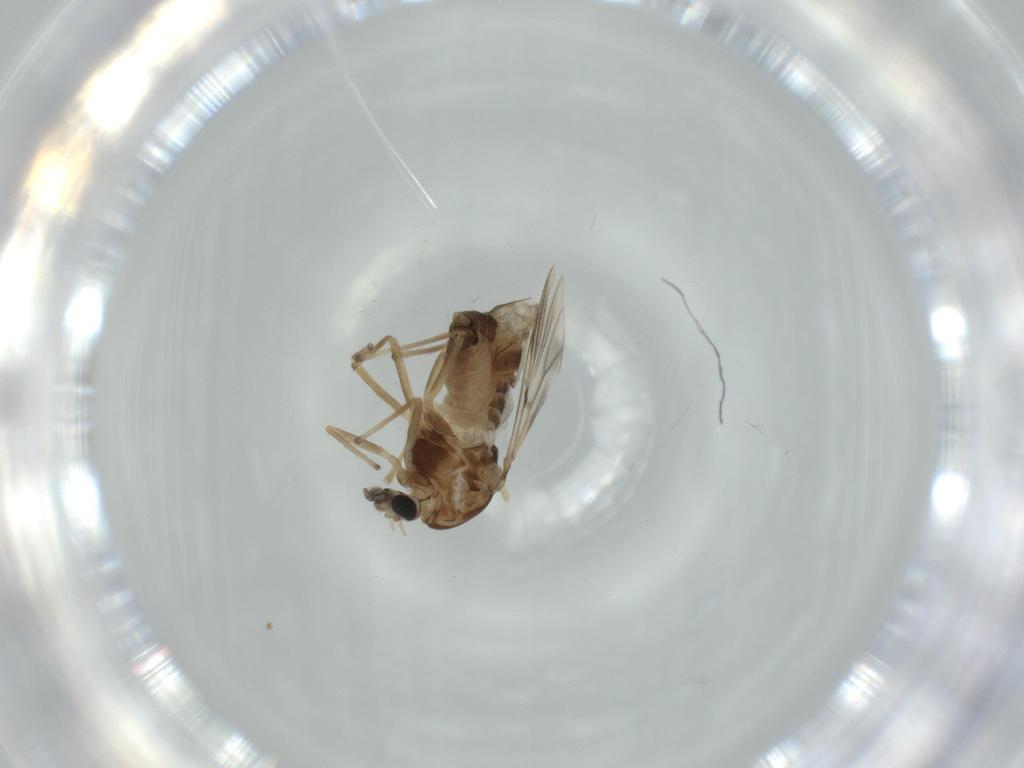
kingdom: Animalia
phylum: Arthropoda
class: Insecta
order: Diptera
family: Chironomidae
